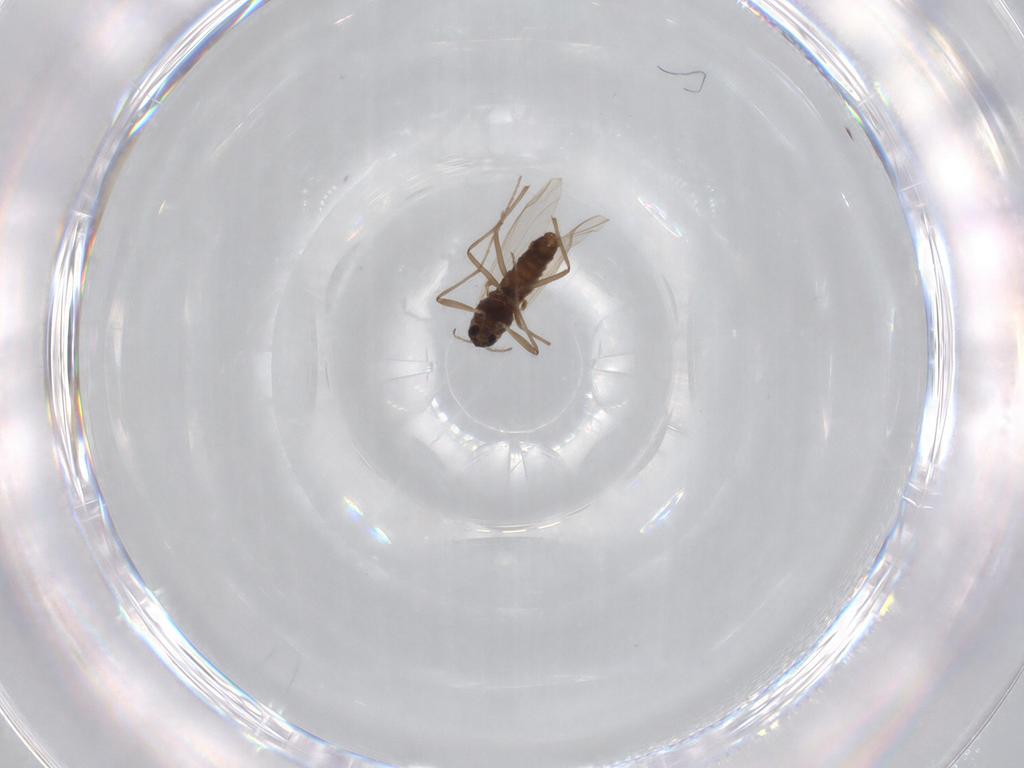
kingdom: Animalia
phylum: Arthropoda
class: Insecta
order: Diptera
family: Chironomidae
